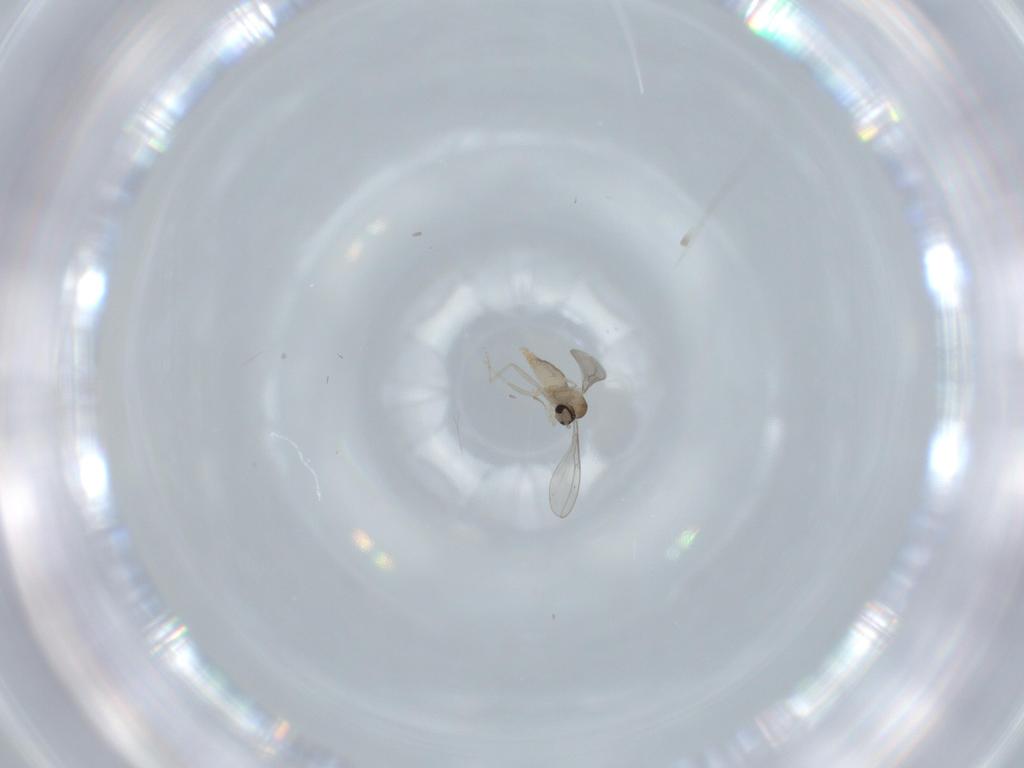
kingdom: Animalia
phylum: Arthropoda
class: Insecta
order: Diptera
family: Cecidomyiidae
